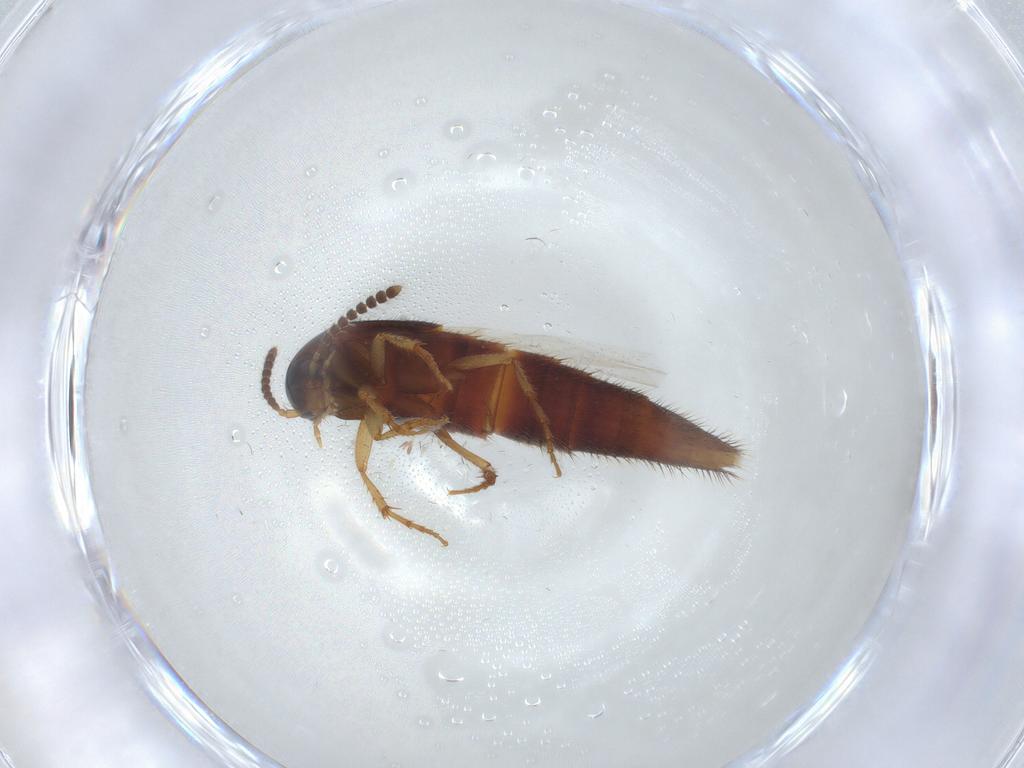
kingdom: Animalia
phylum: Arthropoda
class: Insecta
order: Coleoptera
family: Staphylinidae
